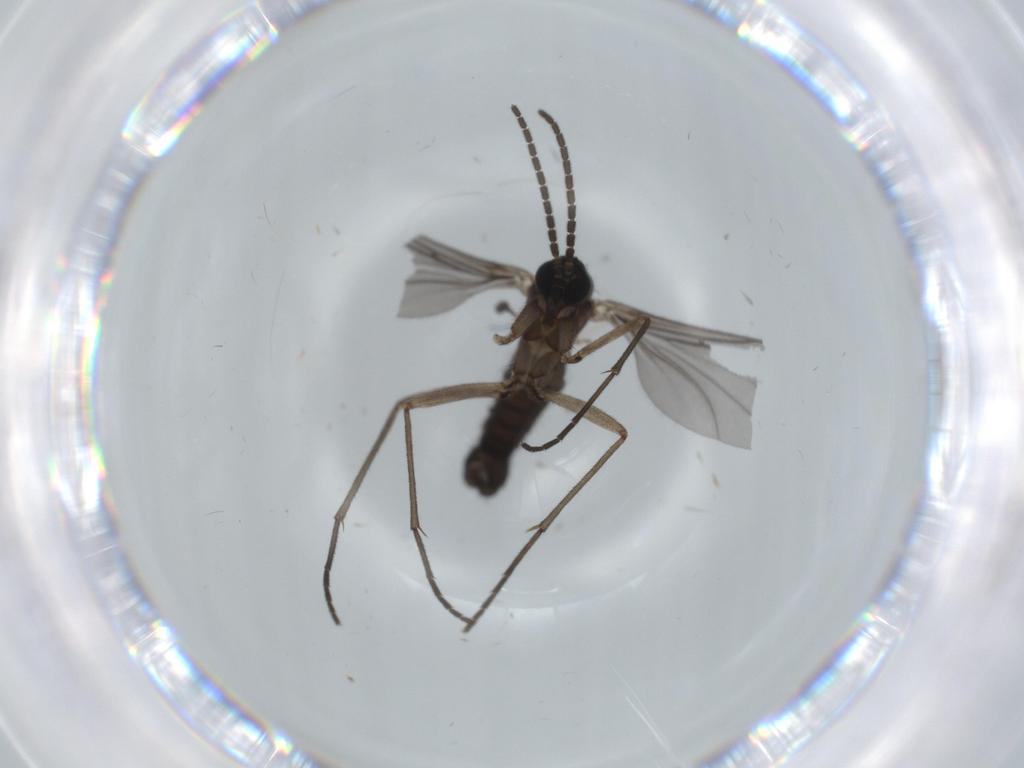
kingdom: Animalia
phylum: Arthropoda
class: Insecta
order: Diptera
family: Sciaridae
